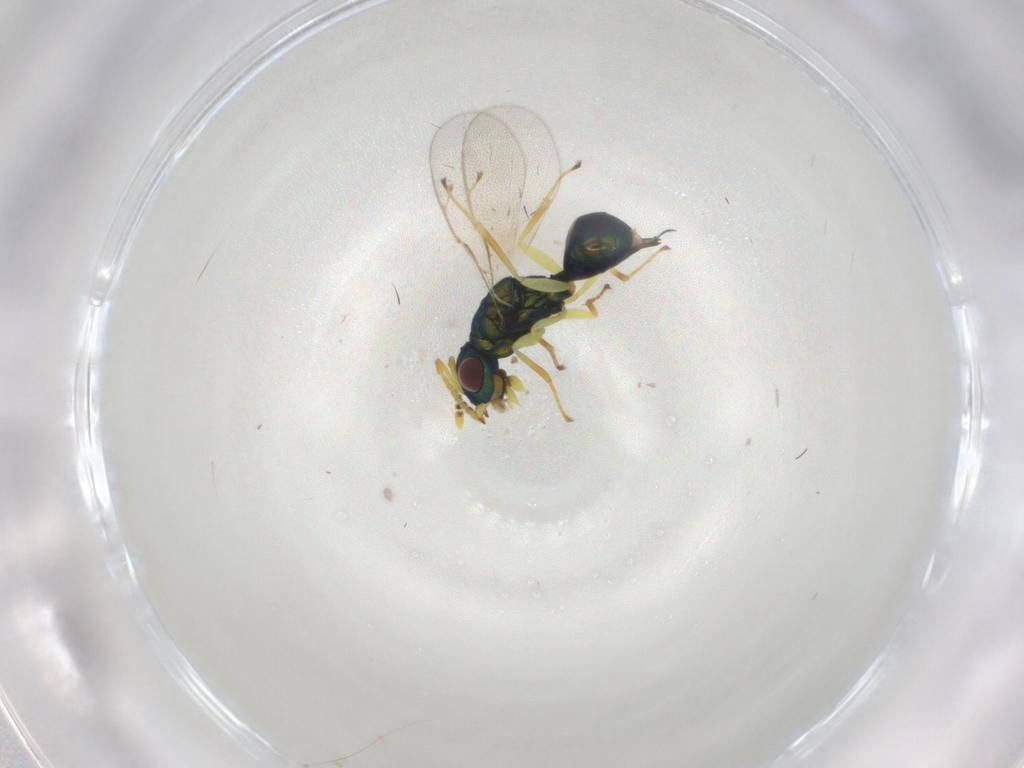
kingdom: Animalia
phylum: Arthropoda
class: Insecta
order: Hymenoptera
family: Pteromalidae
